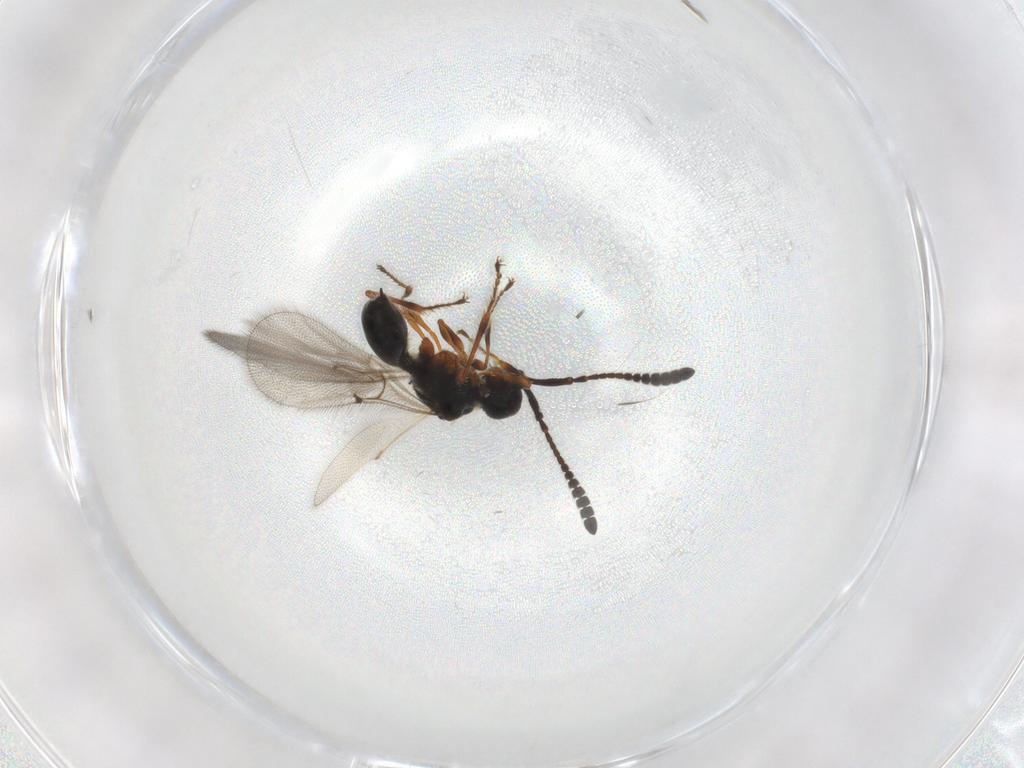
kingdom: Animalia
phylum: Arthropoda
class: Insecta
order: Hymenoptera
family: Diapriidae
